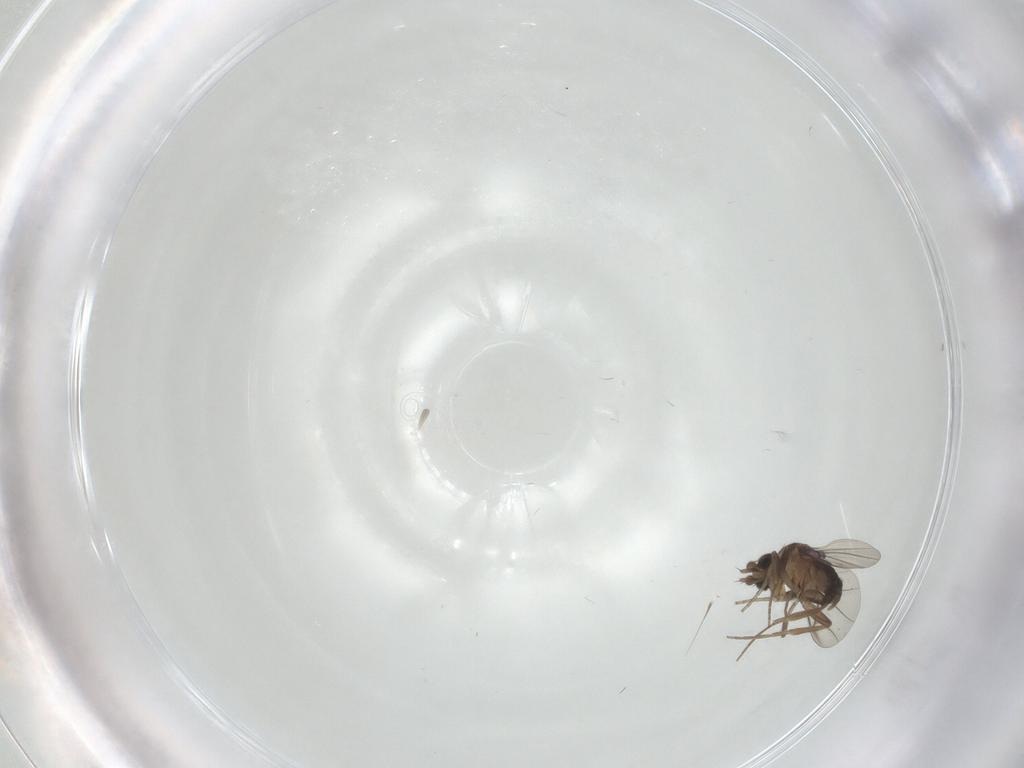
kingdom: Animalia
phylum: Arthropoda
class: Insecta
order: Diptera
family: Phoridae
